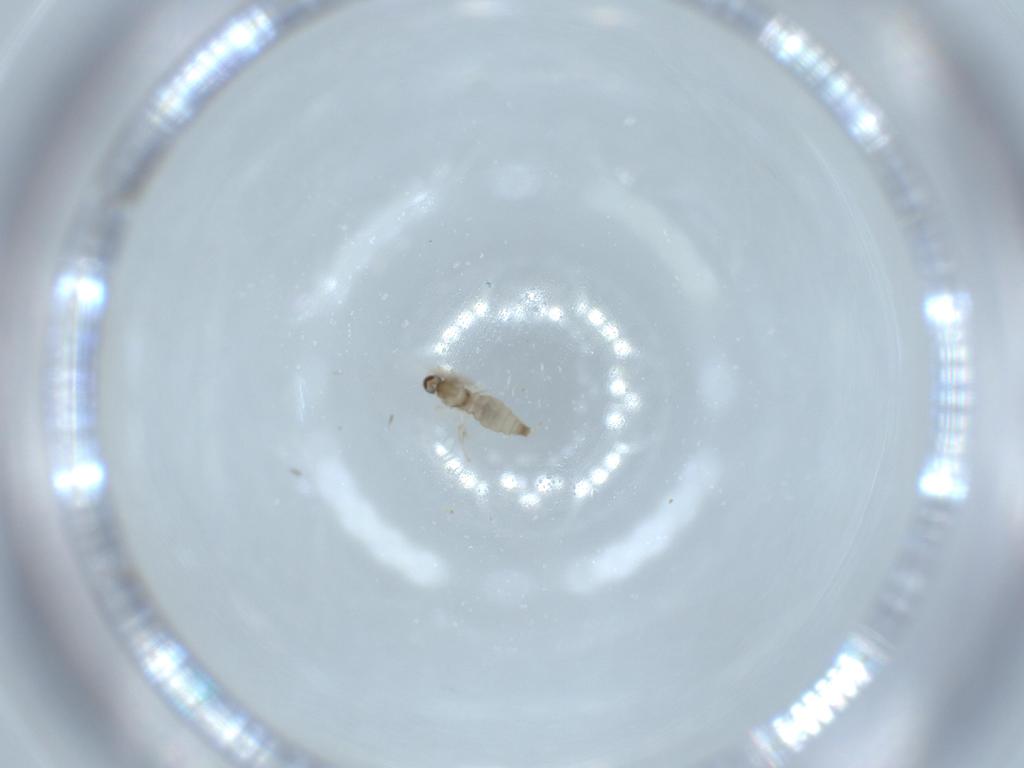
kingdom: Animalia
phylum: Arthropoda
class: Insecta
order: Diptera
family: Cecidomyiidae
